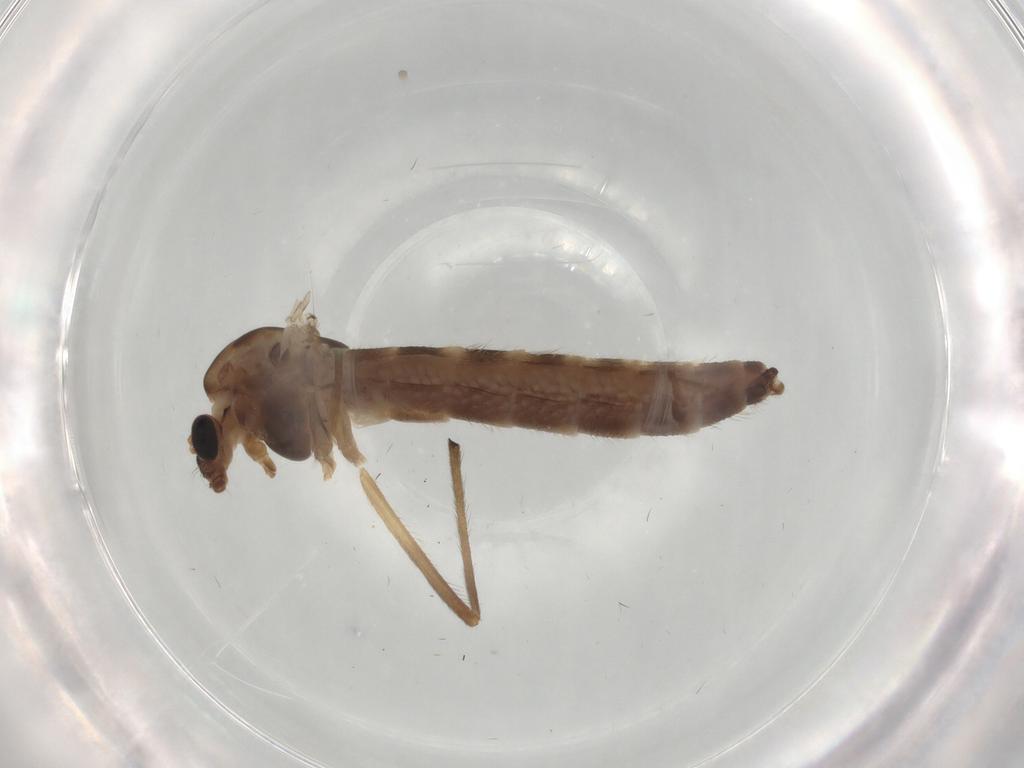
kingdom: Animalia
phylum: Arthropoda
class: Insecta
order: Diptera
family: Chironomidae
